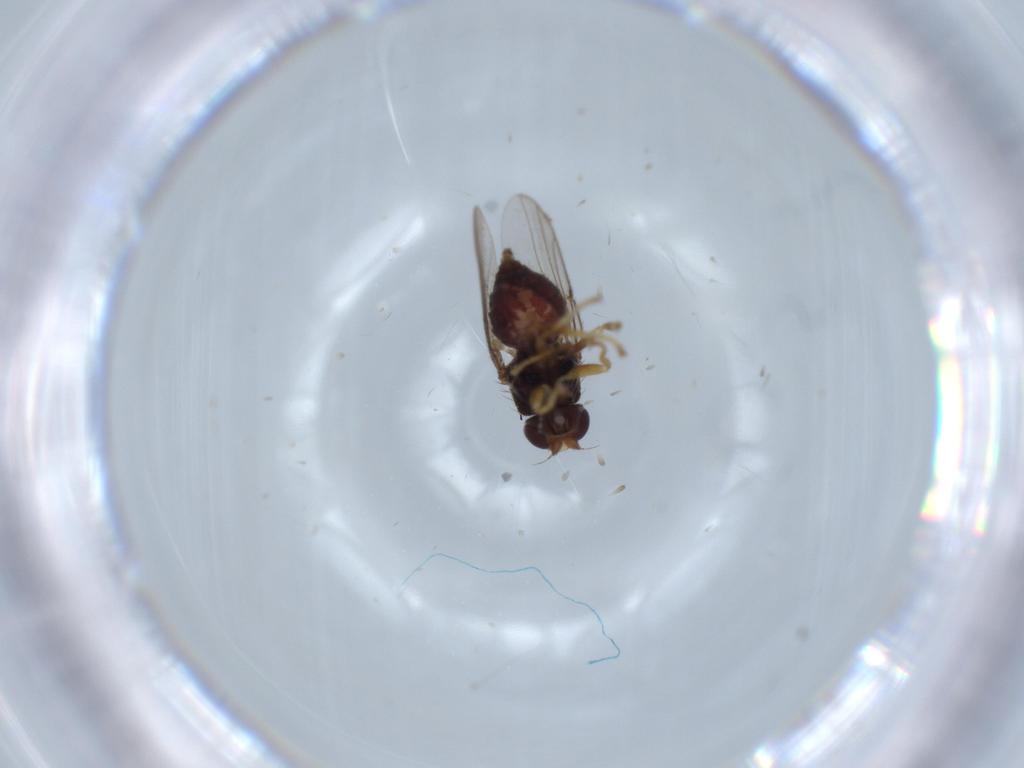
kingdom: Animalia
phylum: Arthropoda
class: Insecta
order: Diptera
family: Chloropidae
